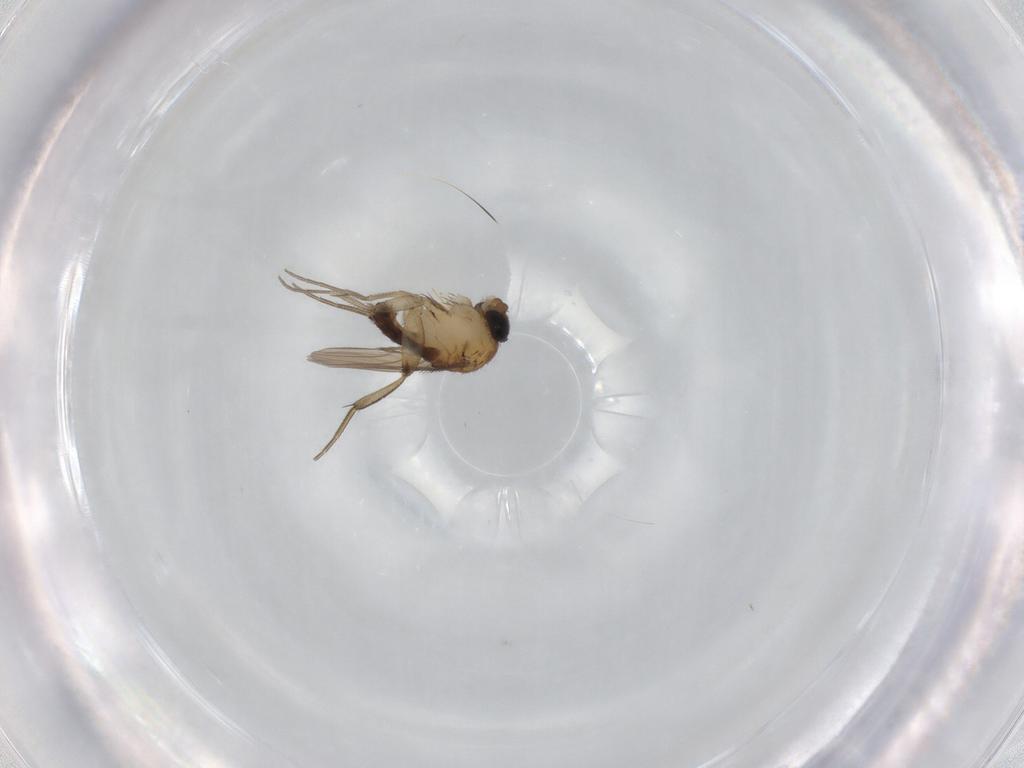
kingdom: Animalia
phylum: Arthropoda
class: Insecta
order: Diptera
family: Phoridae
